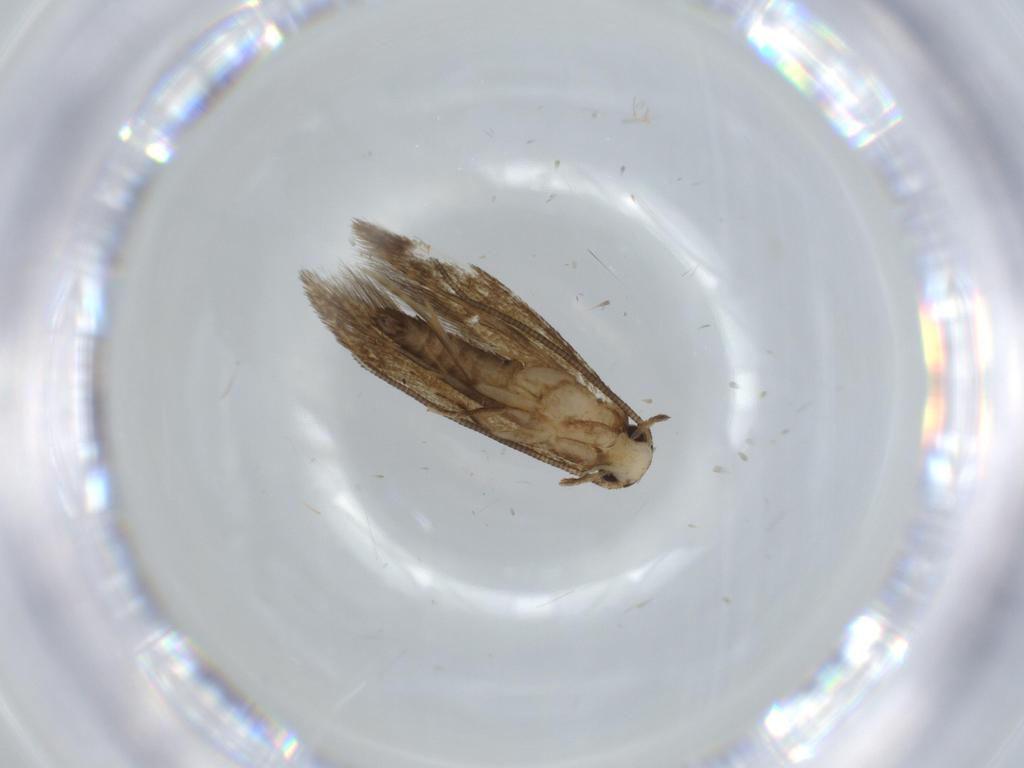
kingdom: Animalia
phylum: Arthropoda
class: Insecta
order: Lepidoptera
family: Tineidae
